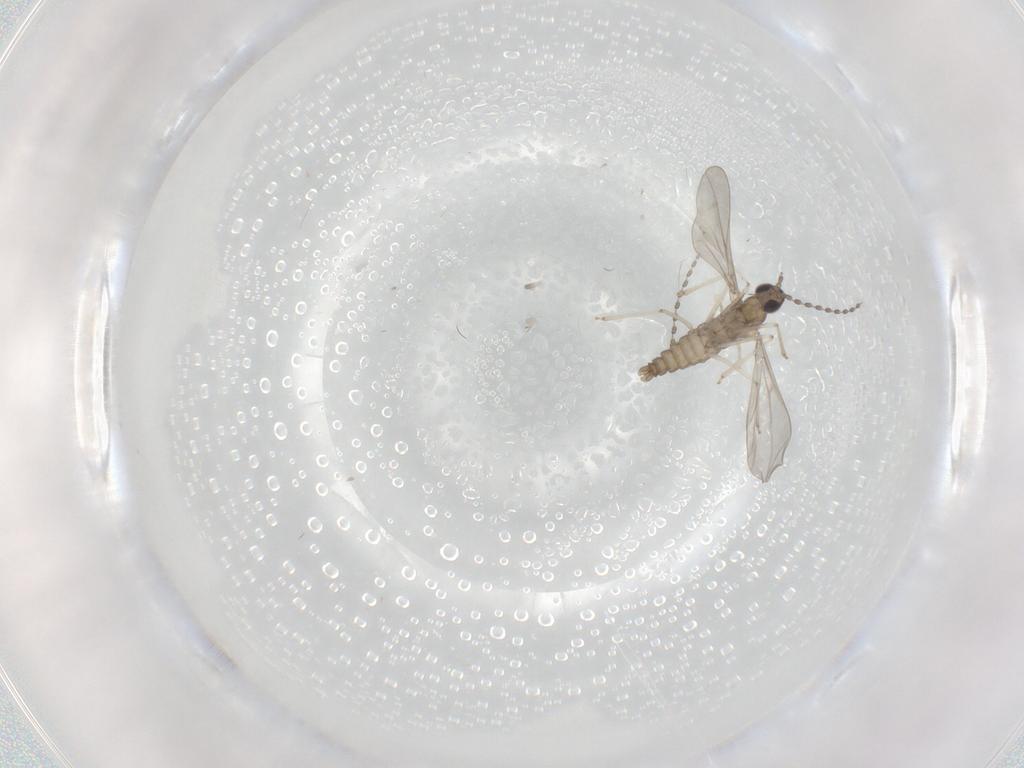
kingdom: Animalia
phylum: Arthropoda
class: Insecta
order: Diptera
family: Cecidomyiidae
